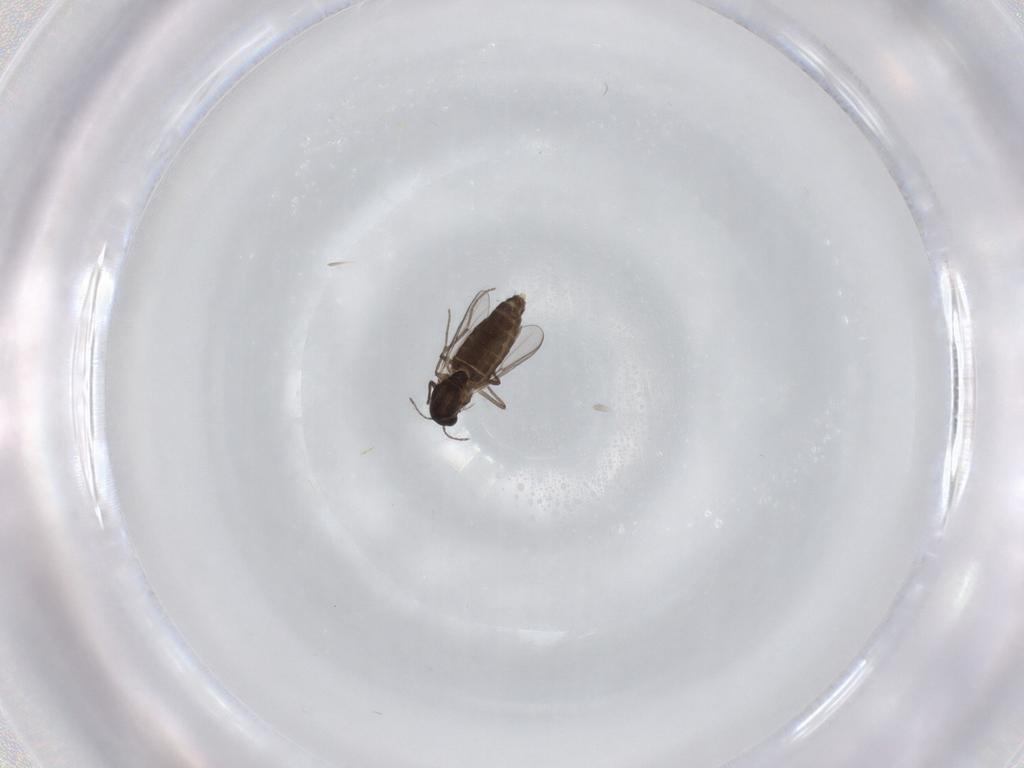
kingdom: Animalia
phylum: Arthropoda
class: Insecta
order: Diptera
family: Chironomidae
